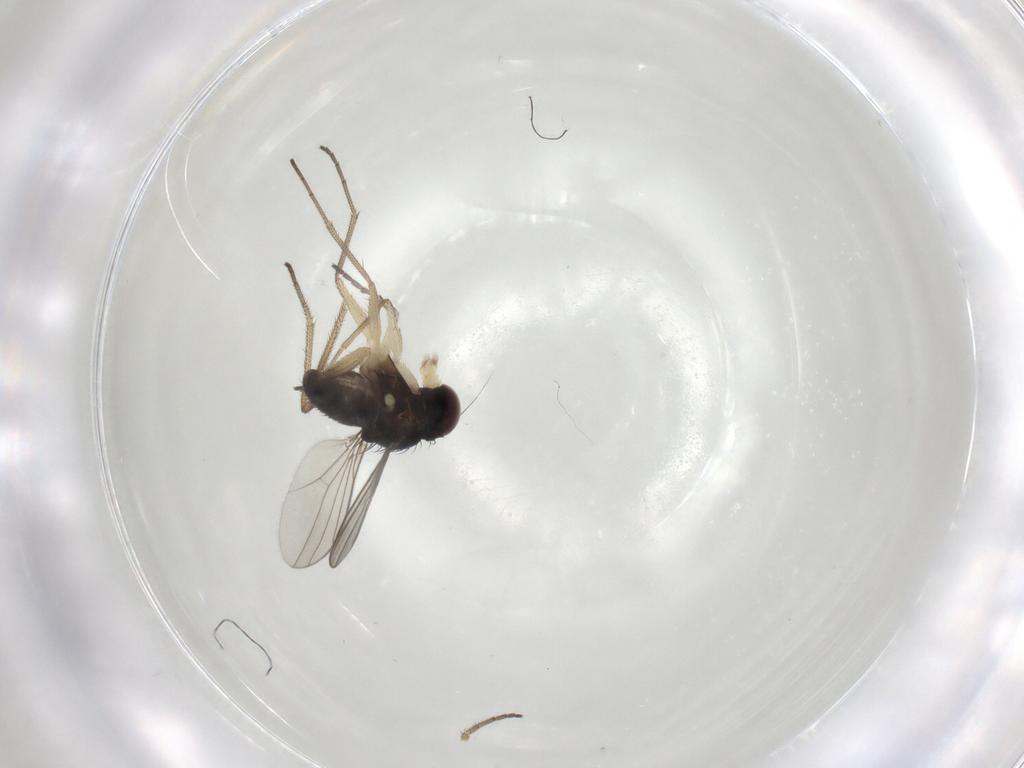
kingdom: Animalia
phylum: Arthropoda
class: Insecta
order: Diptera
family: Dolichopodidae
